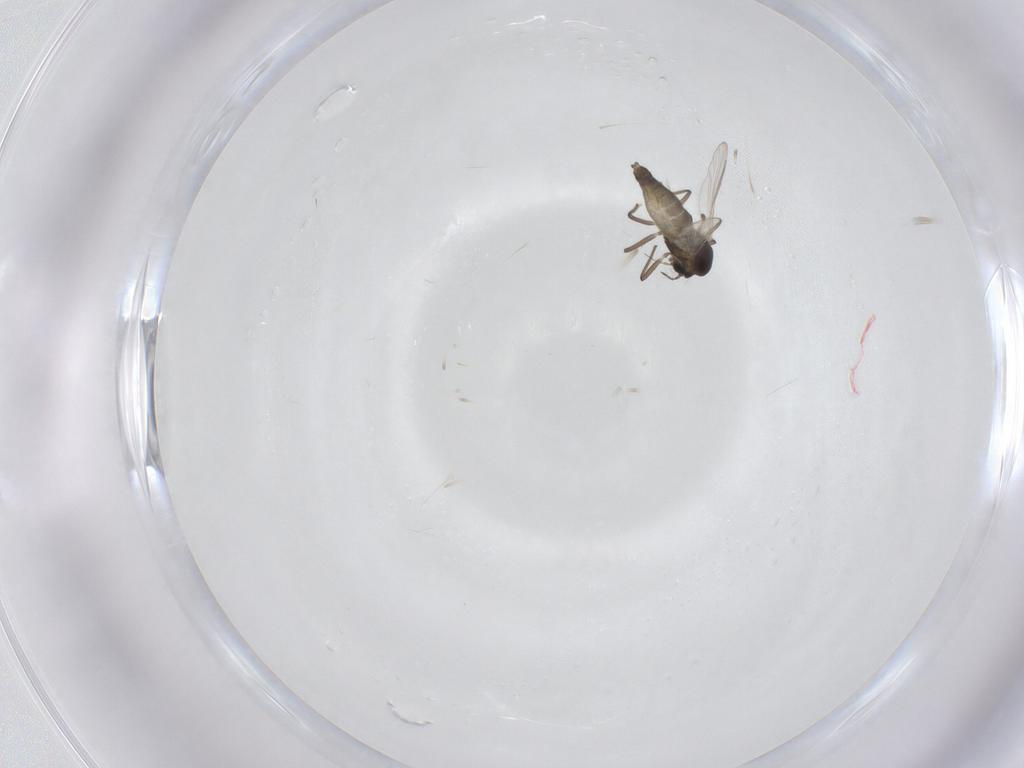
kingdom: Animalia
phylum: Arthropoda
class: Insecta
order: Diptera
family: Chironomidae
